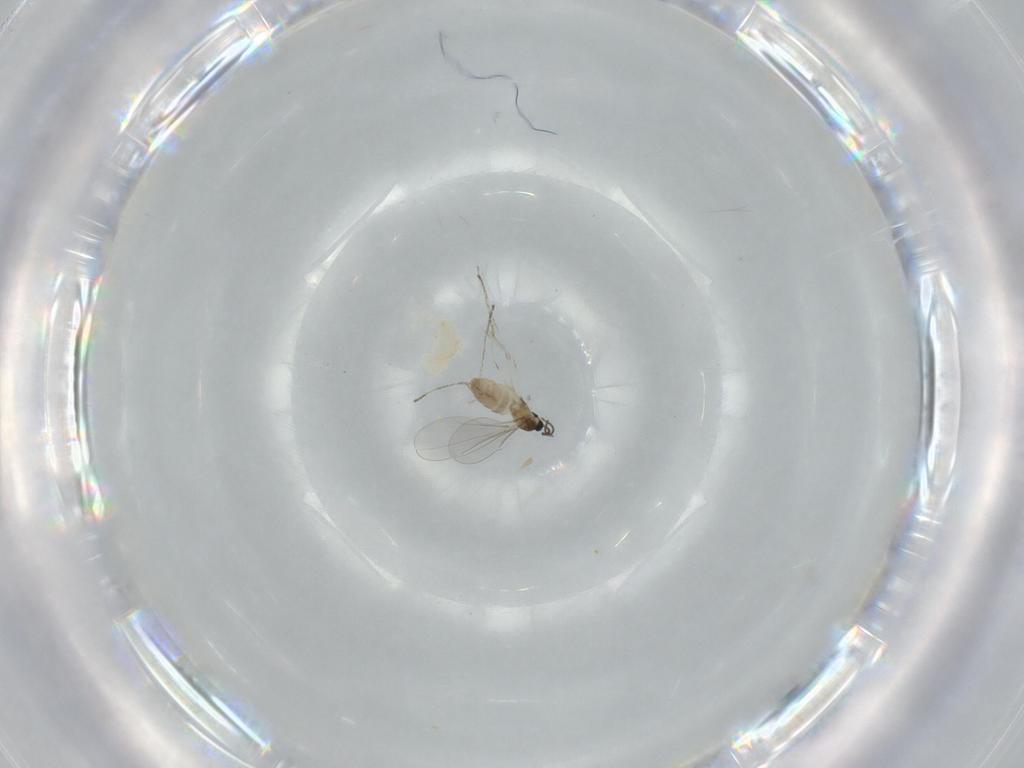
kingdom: Animalia
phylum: Arthropoda
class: Insecta
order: Diptera
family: Cecidomyiidae
